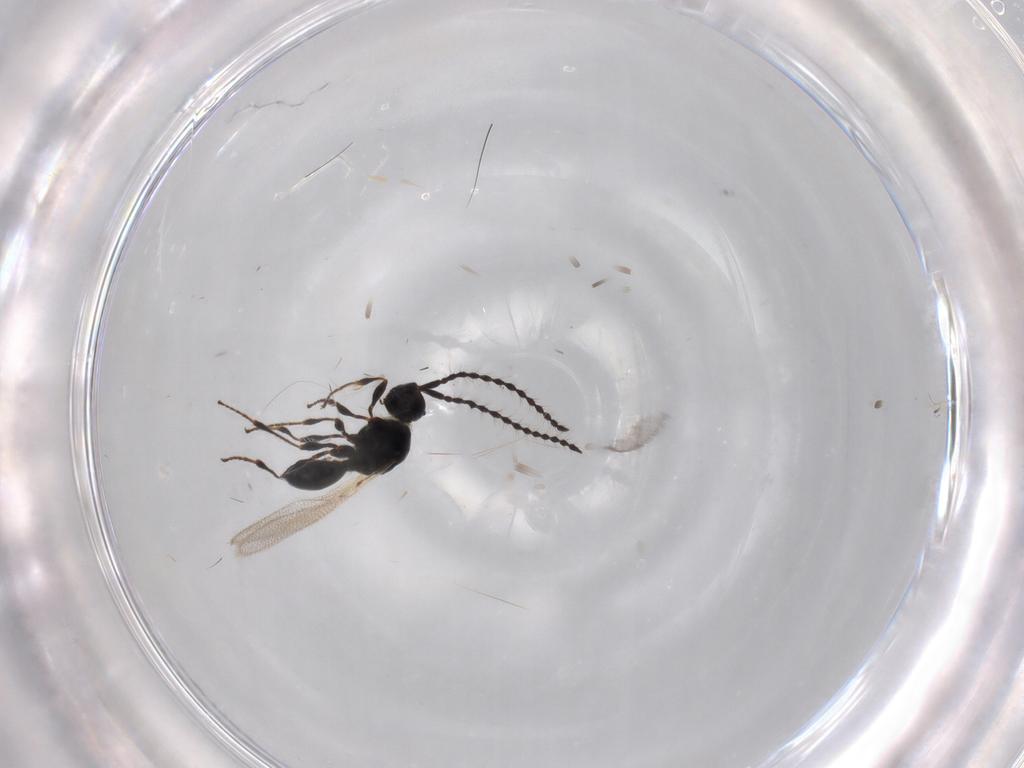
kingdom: Animalia
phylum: Arthropoda
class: Insecta
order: Hymenoptera
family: Diapriidae
